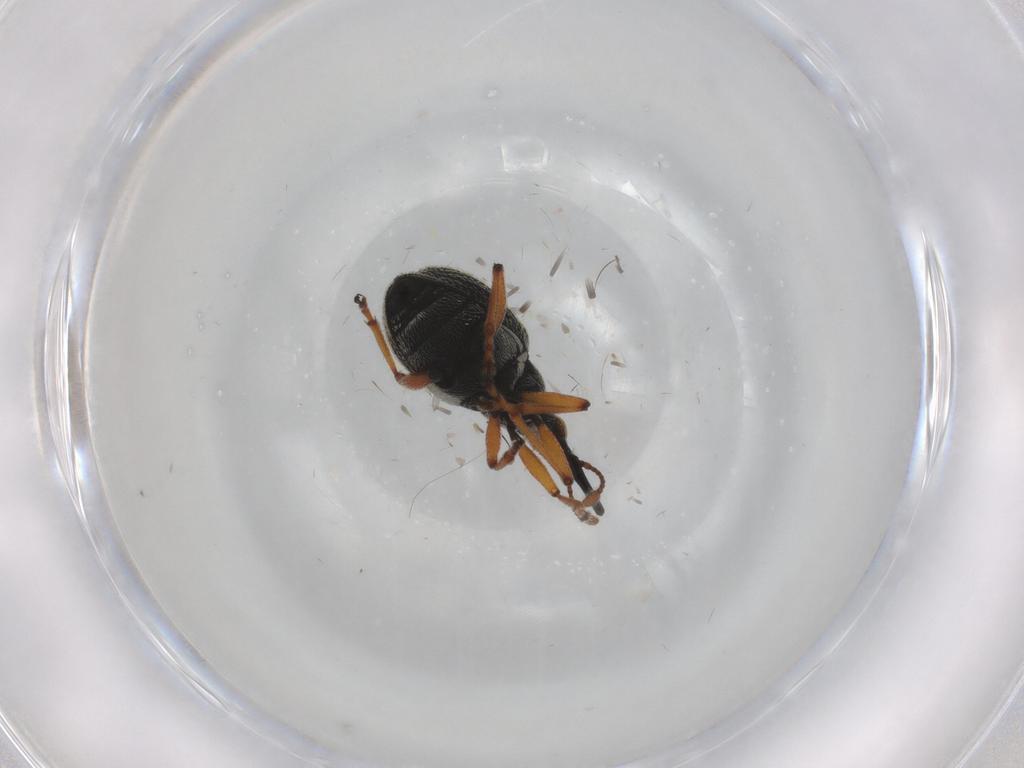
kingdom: Animalia
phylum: Arthropoda
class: Insecta
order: Coleoptera
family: Brentidae
